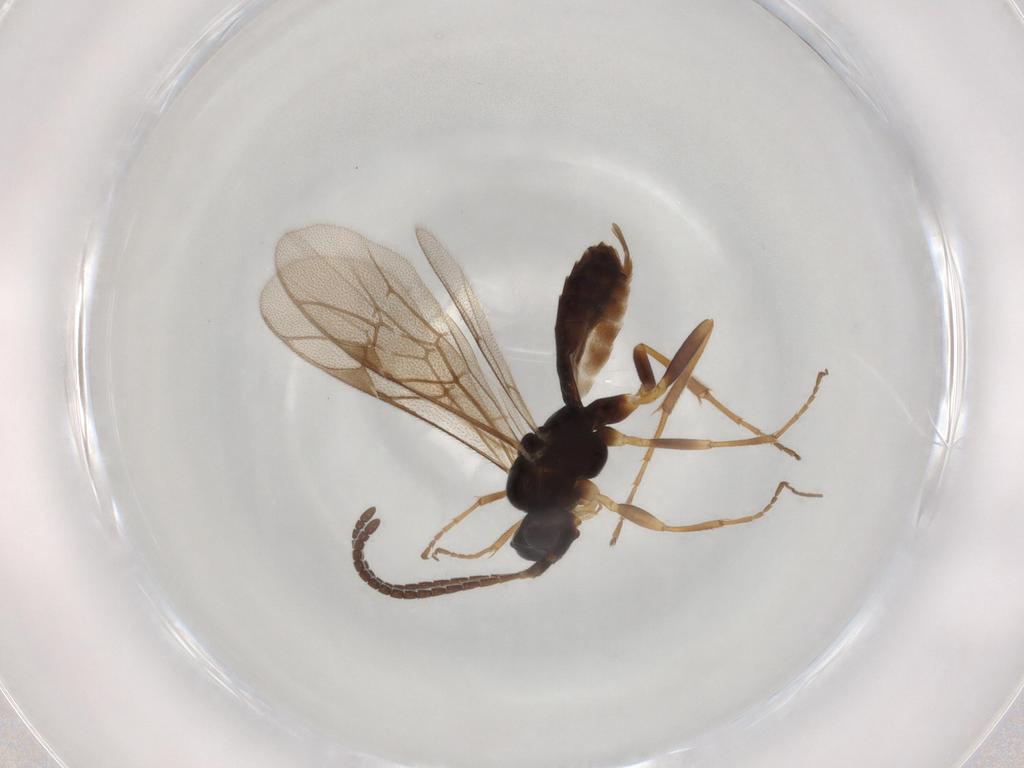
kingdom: Animalia
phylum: Arthropoda
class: Insecta
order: Hymenoptera
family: Ichneumonidae
